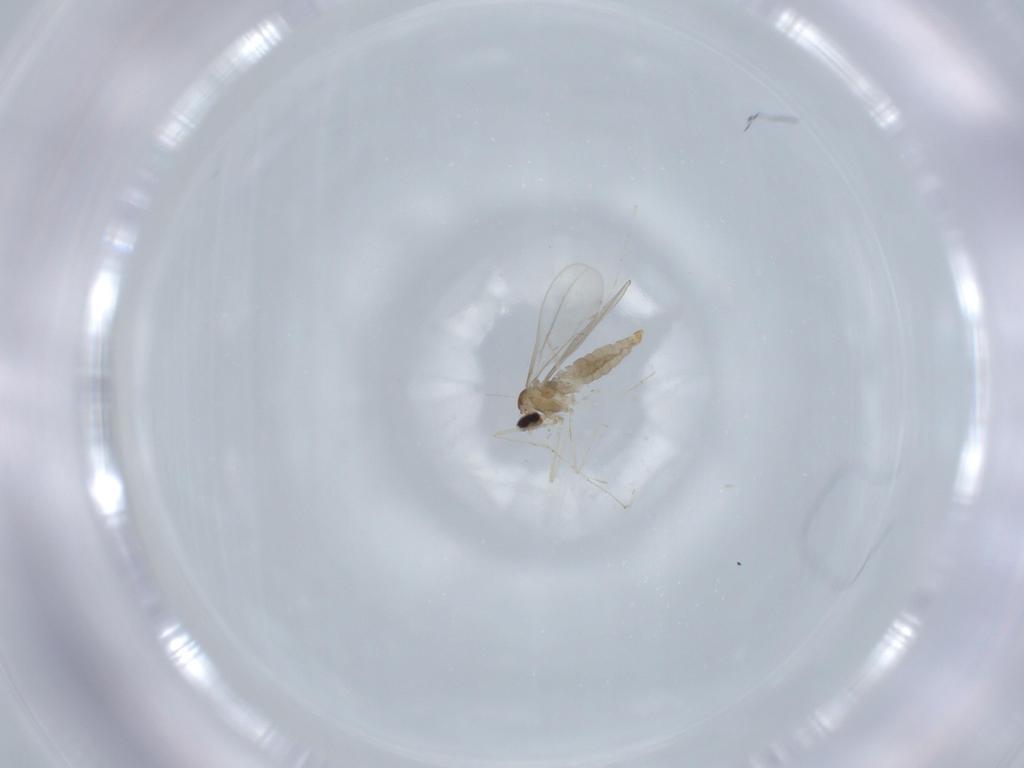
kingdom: Animalia
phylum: Arthropoda
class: Insecta
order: Diptera
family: Cecidomyiidae
